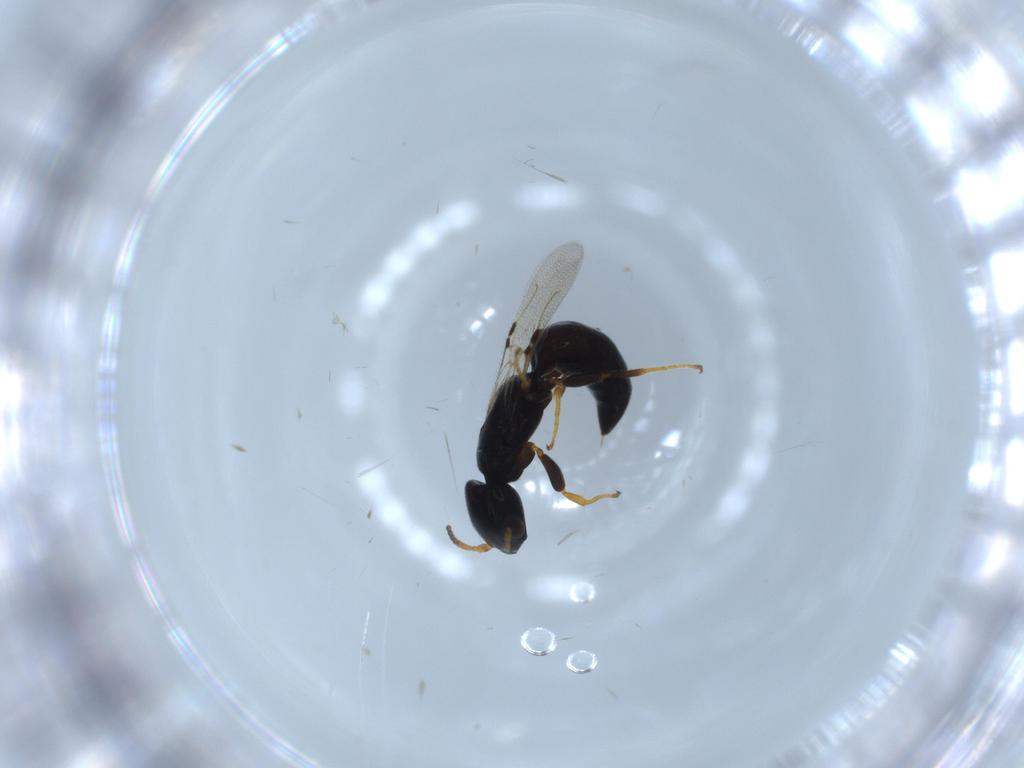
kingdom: Animalia
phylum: Arthropoda
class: Insecta
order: Hymenoptera
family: Bethylidae
